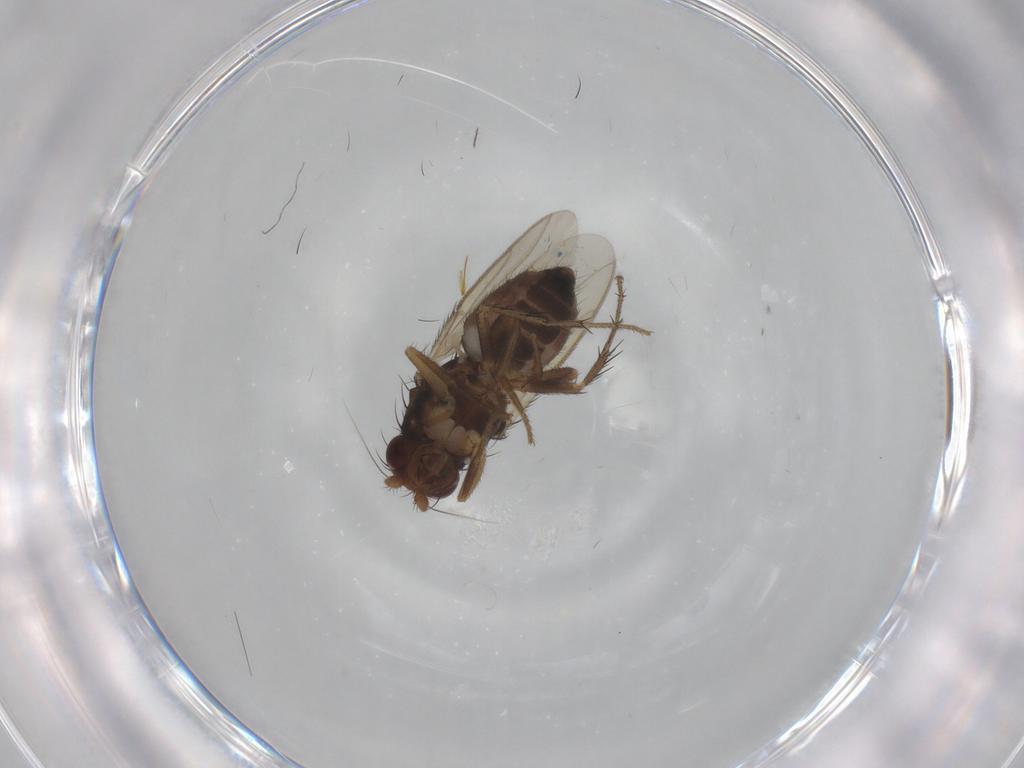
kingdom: Animalia
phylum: Arthropoda
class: Insecta
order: Diptera
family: Sphaeroceridae
